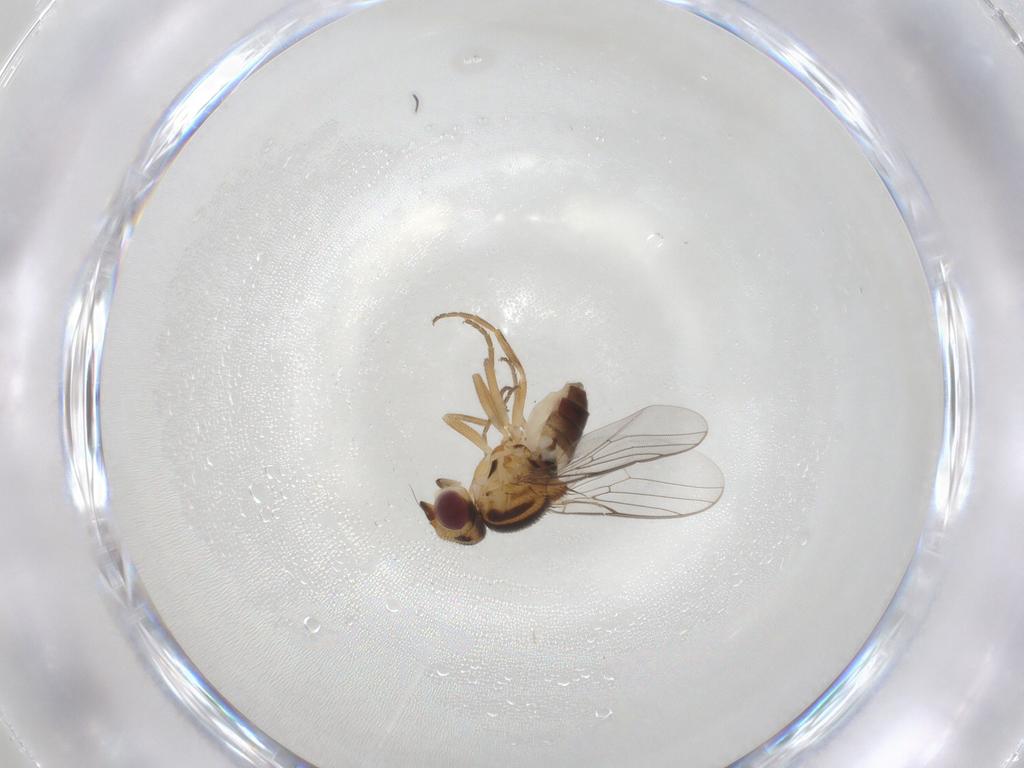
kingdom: Animalia
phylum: Arthropoda
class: Insecta
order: Diptera
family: Chloropidae
